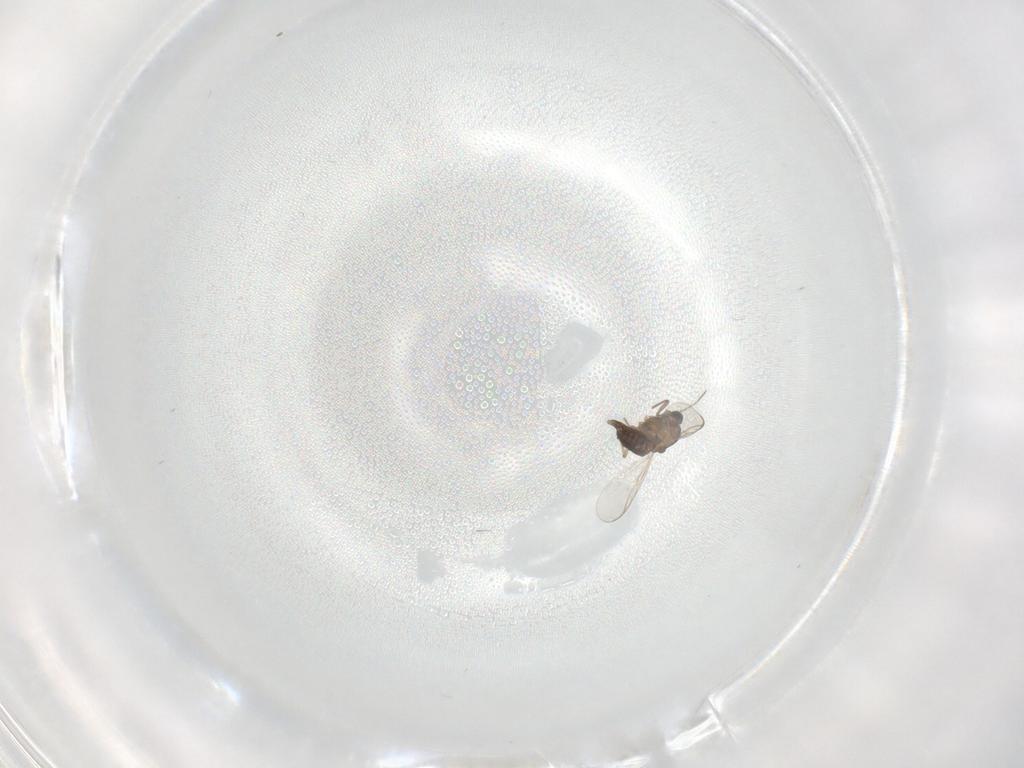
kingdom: Animalia
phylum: Arthropoda
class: Insecta
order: Diptera
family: Chironomidae
